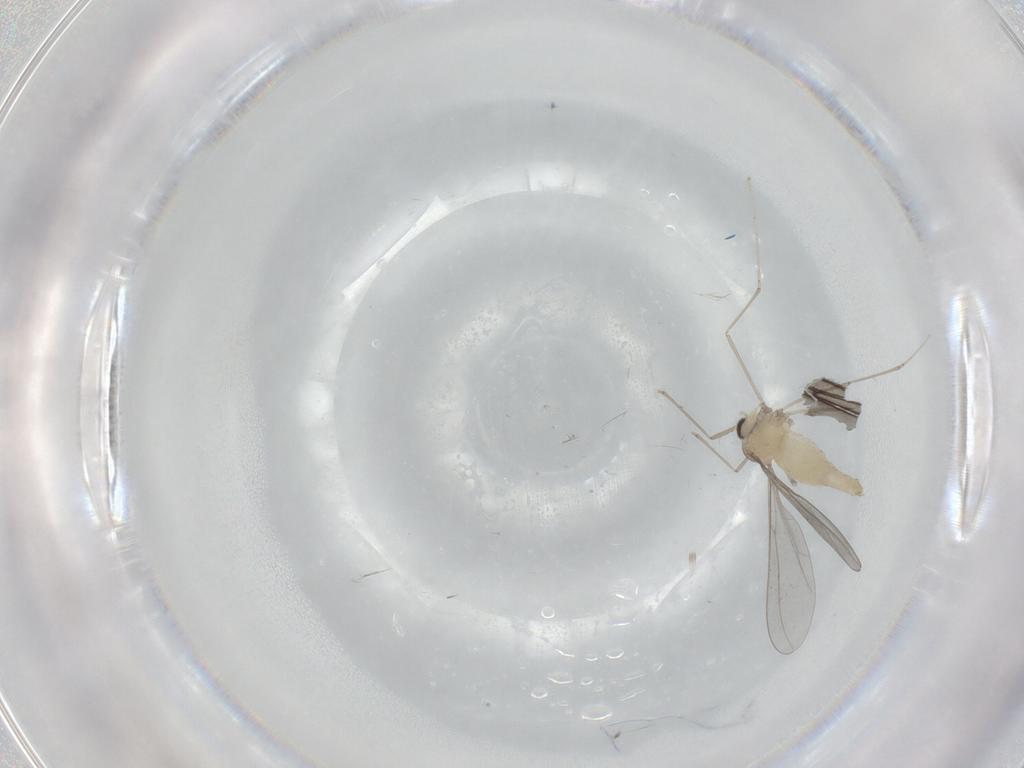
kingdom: Animalia
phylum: Arthropoda
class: Insecta
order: Diptera
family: Cecidomyiidae
